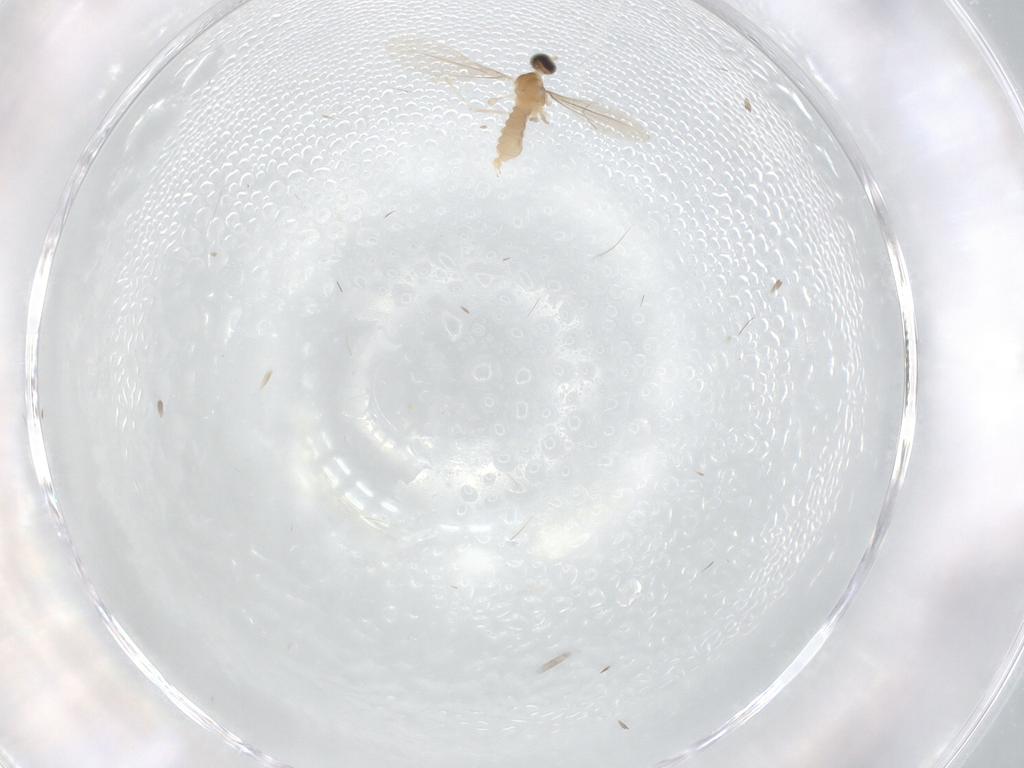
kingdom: Animalia
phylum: Arthropoda
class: Insecta
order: Diptera
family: Cecidomyiidae
